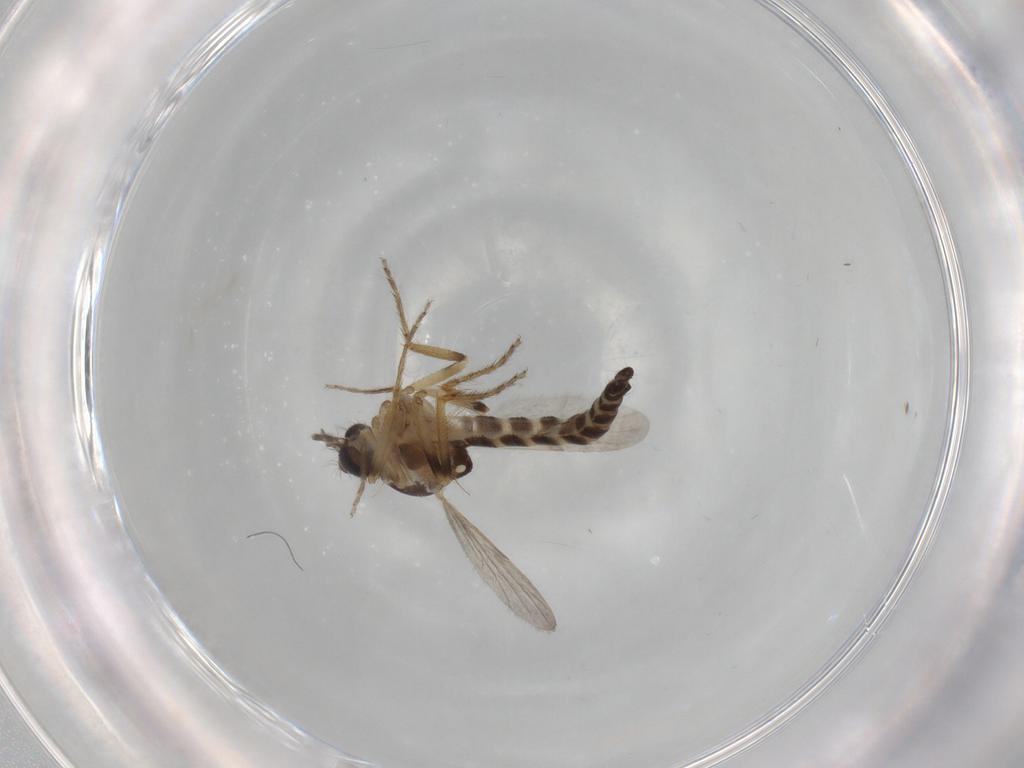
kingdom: Animalia
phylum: Arthropoda
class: Insecta
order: Diptera
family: Ceratopogonidae
